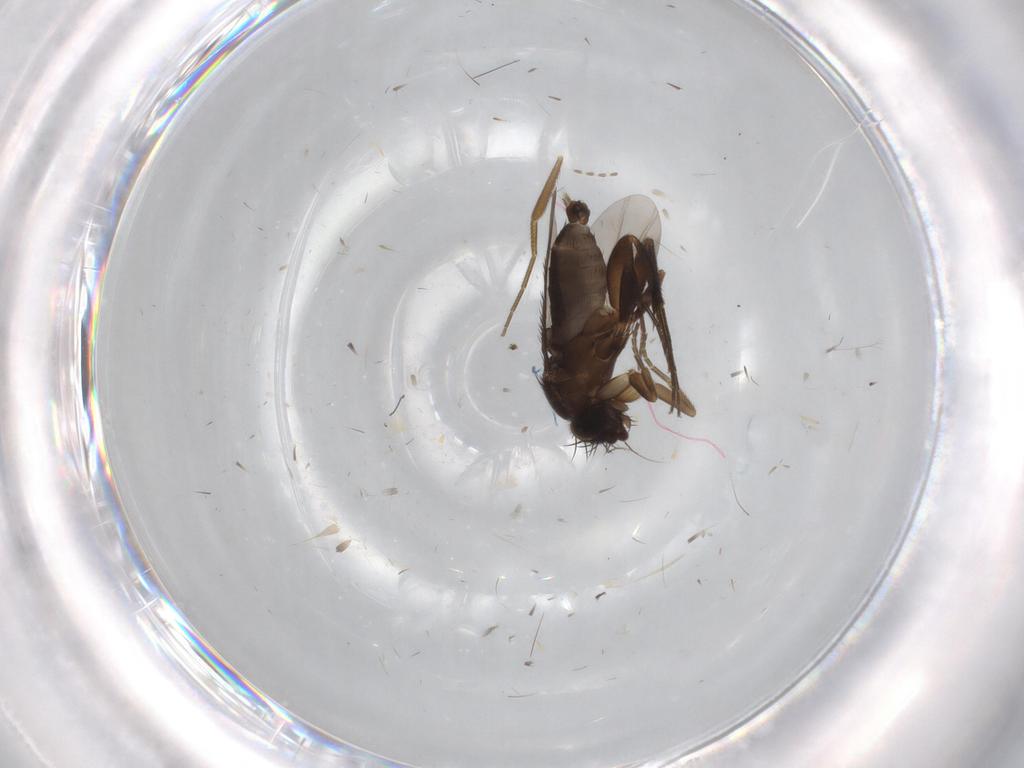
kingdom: Animalia
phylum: Arthropoda
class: Insecta
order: Diptera
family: Phoridae
